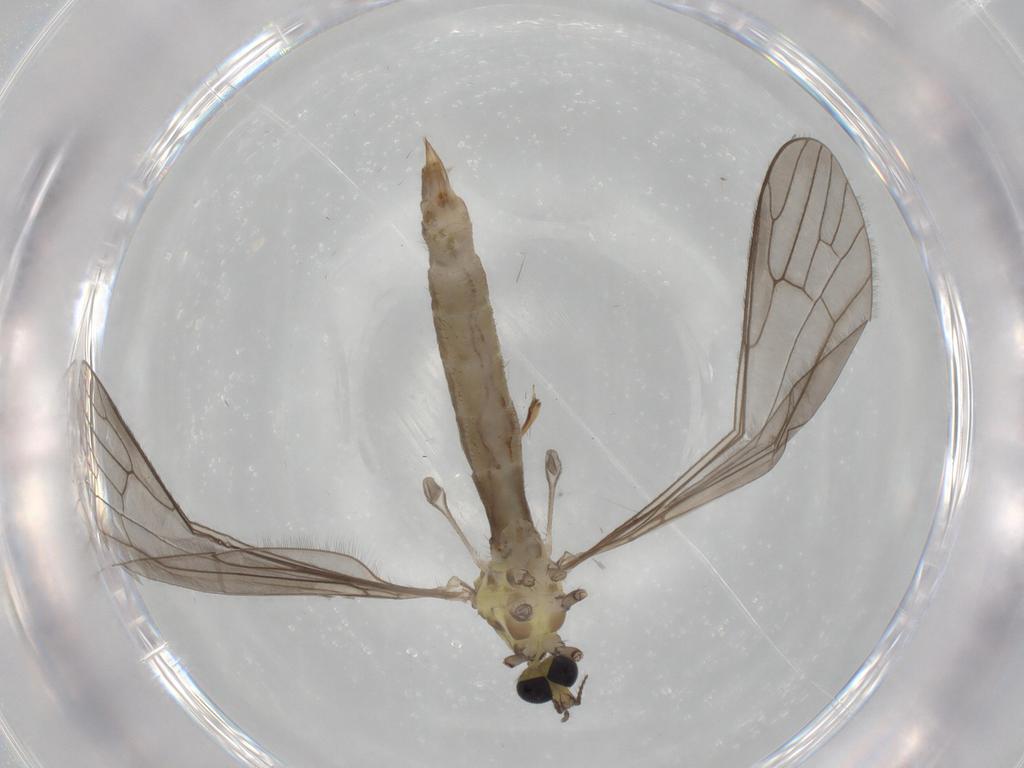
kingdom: Animalia
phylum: Arthropoda
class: Insecta
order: Diptera
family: Limoniidae
